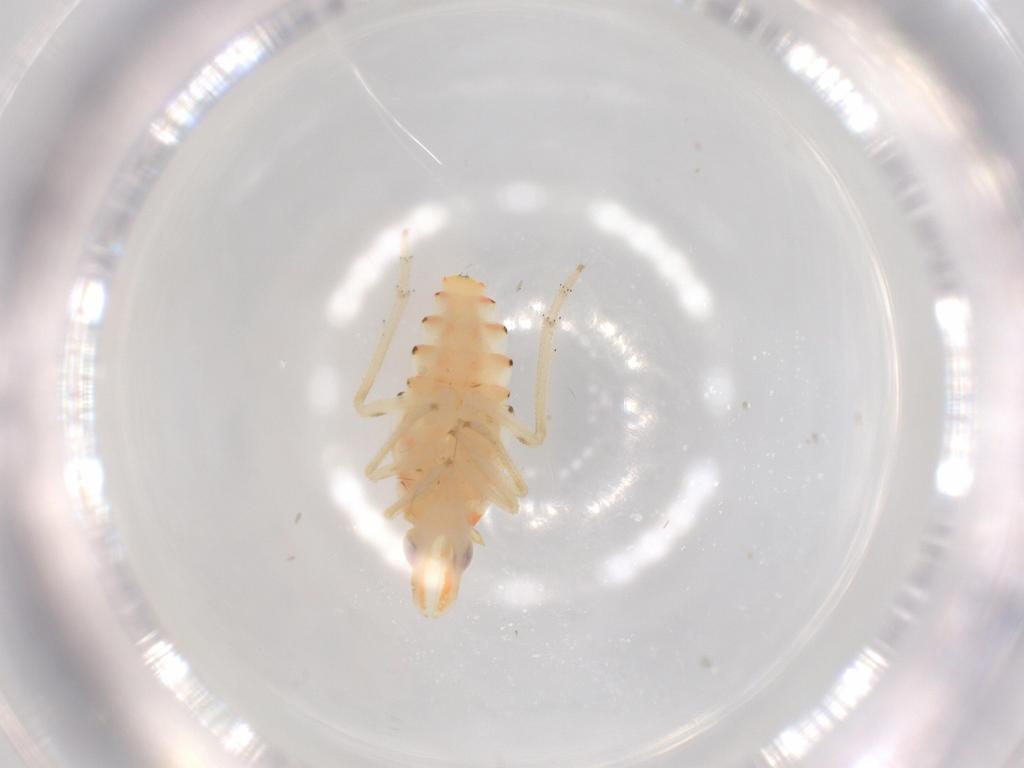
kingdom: Animalia
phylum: Arthropoda
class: Insecta
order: Hemiptera
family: Tropiduchidae
